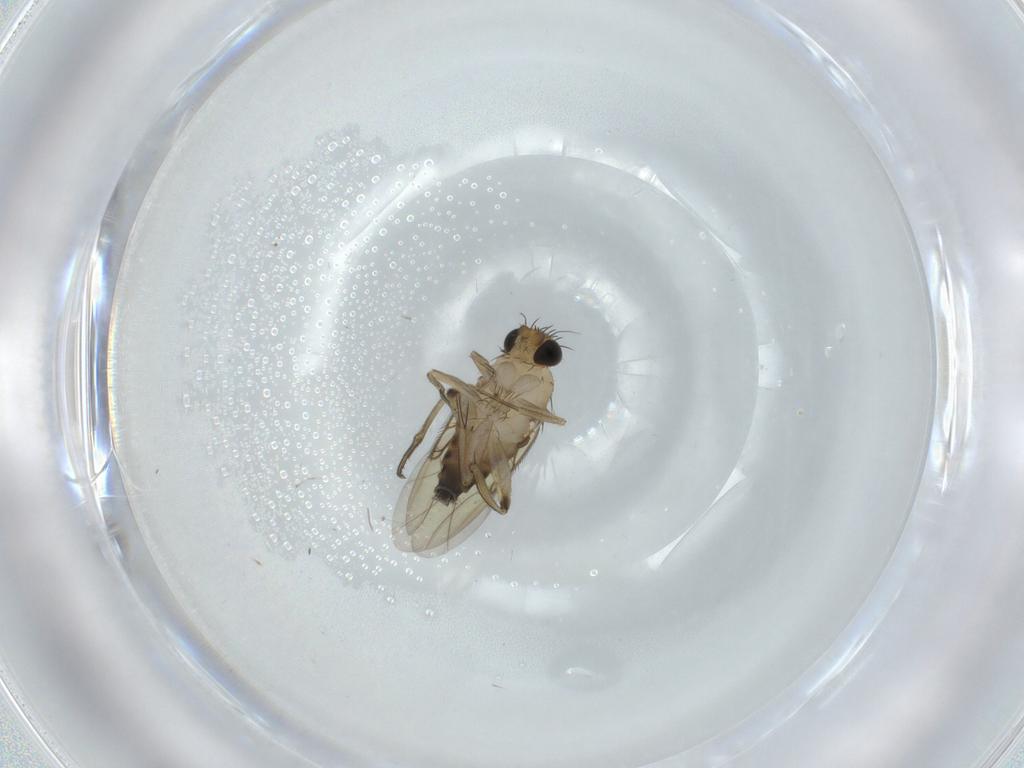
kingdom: Animalia
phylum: Arthropoda
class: Insecta
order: Diptera
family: Phoridae
